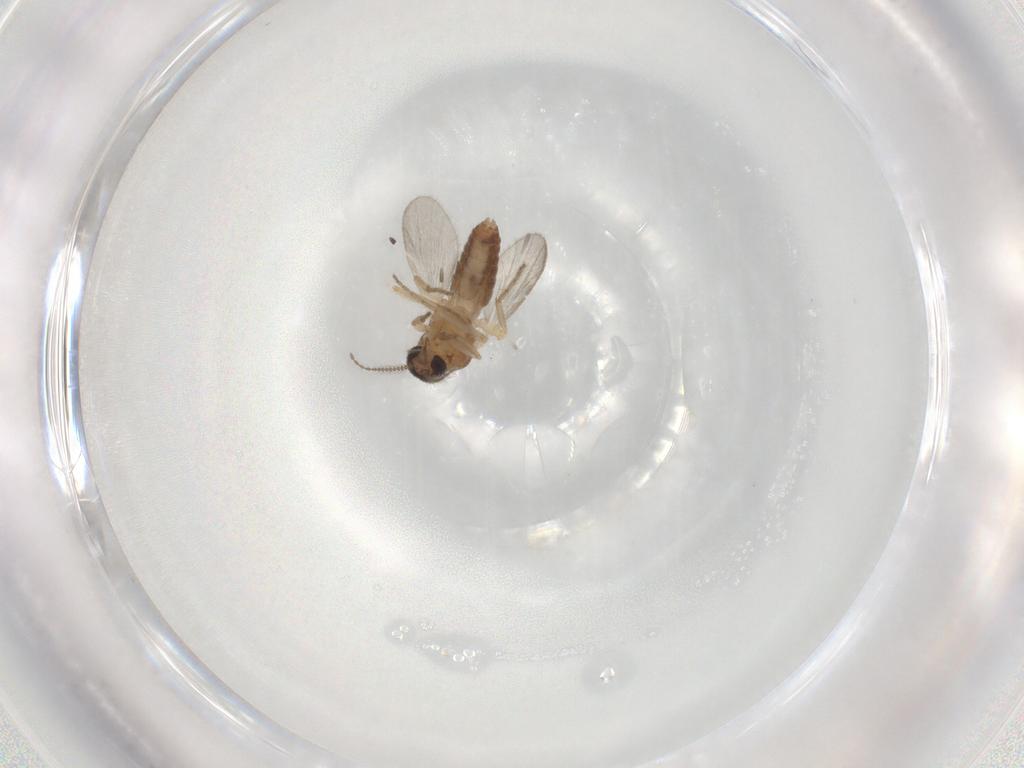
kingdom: Animalia
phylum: Arthropoda
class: Insecta
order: Diptera
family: Ceratopogonidae
